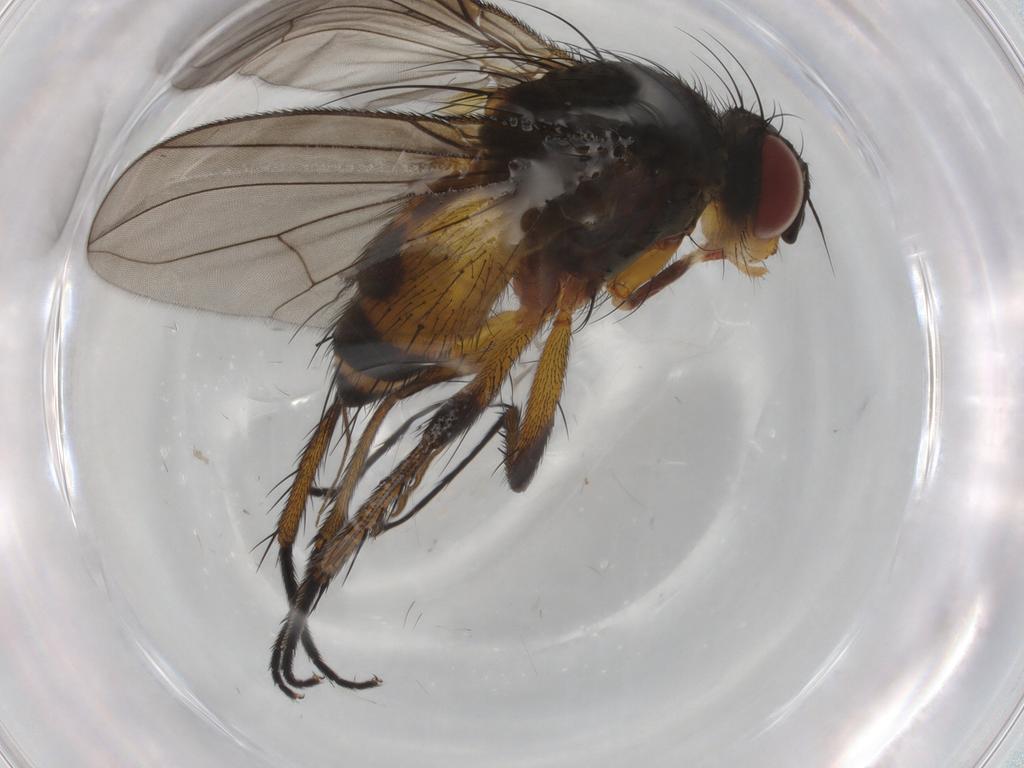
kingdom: Animalia
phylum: Arthropoda
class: Insecta
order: Diptera
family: Tachinidae
